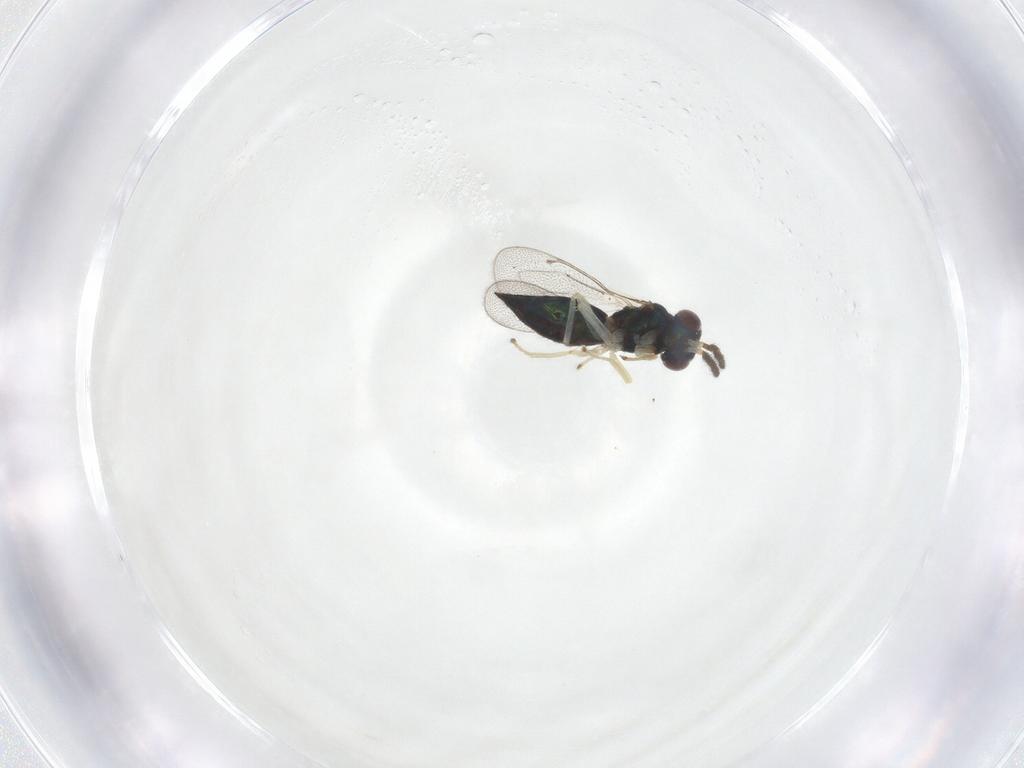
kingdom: Animalia
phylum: Arthropoda
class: Insecta
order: Hymenoptera
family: Eulophidae
